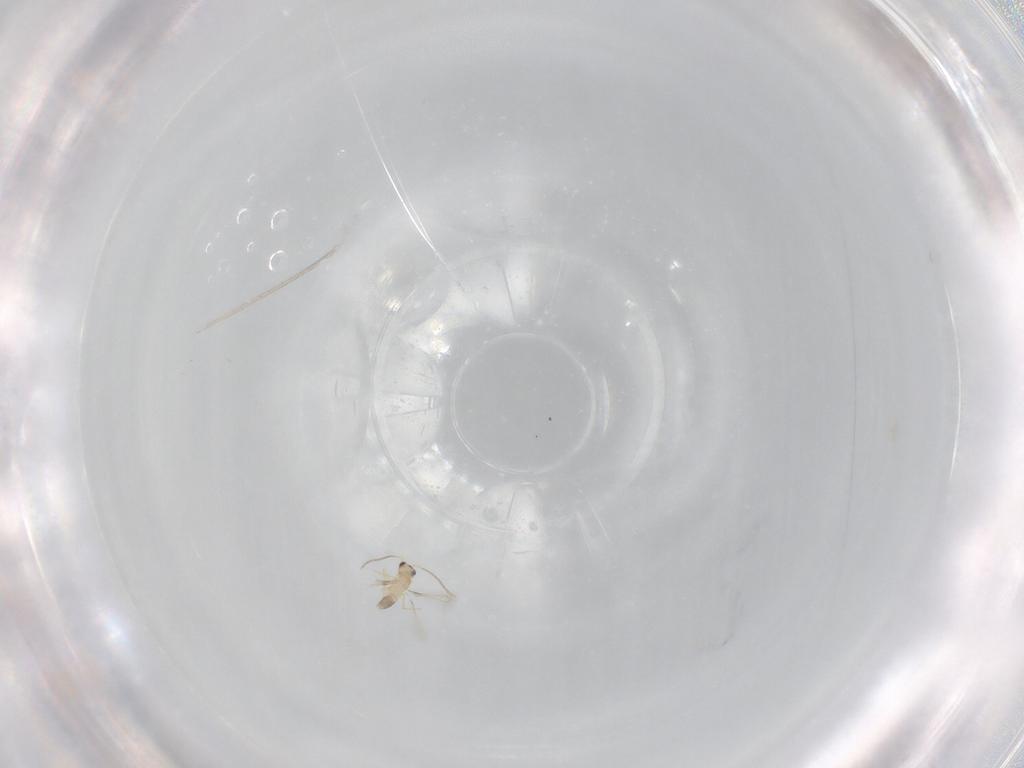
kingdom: Animalia
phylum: Arthropoda
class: Insecta
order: Hymenoptera
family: Mymaridae
